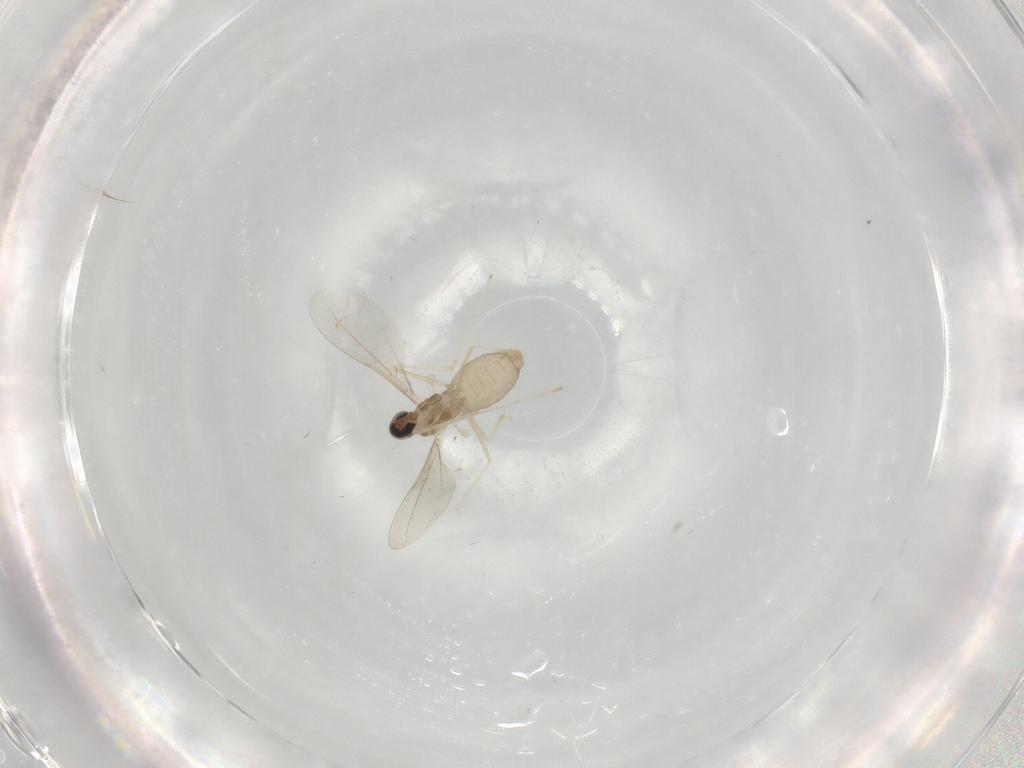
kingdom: Animalia
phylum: Arthropoda
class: Insecta
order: Diptera
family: Cecidomyiidae
